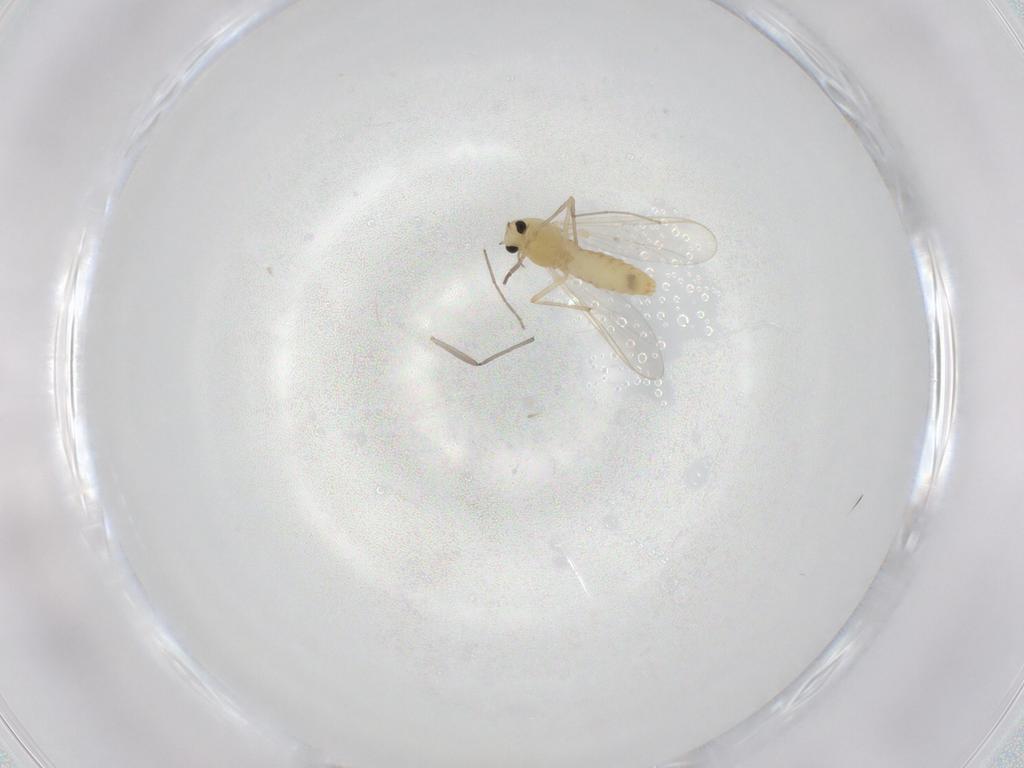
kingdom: Animalia
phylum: Arthropoda
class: Insecta
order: Diptera
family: Chironomidae
